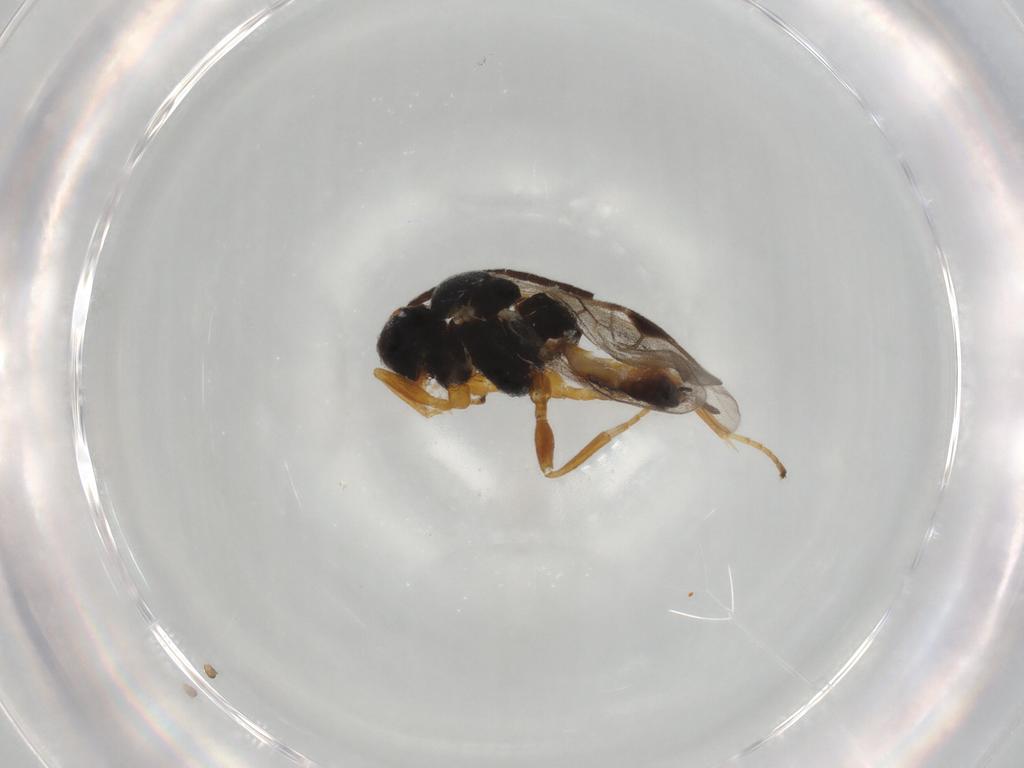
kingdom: Animalia
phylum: Arthropoda
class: Insecta
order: Hymenoptera
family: Braconidae
